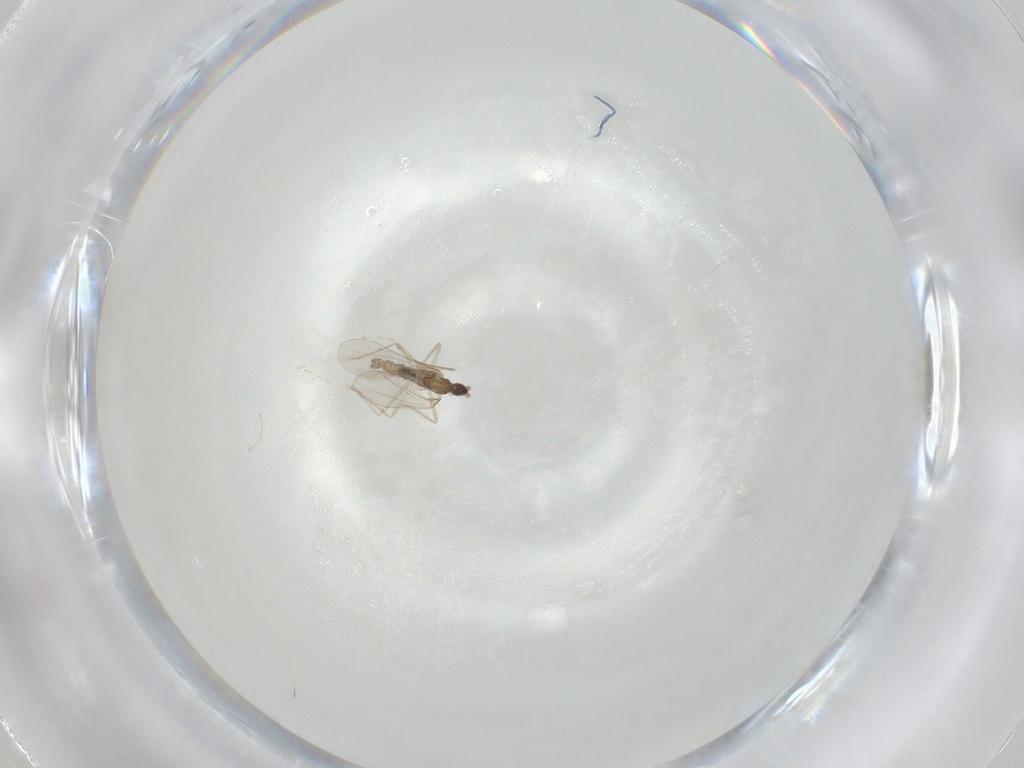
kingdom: Animalia
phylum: Arthropoda
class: Insecta
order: Diptera
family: Cecidomyiidae
